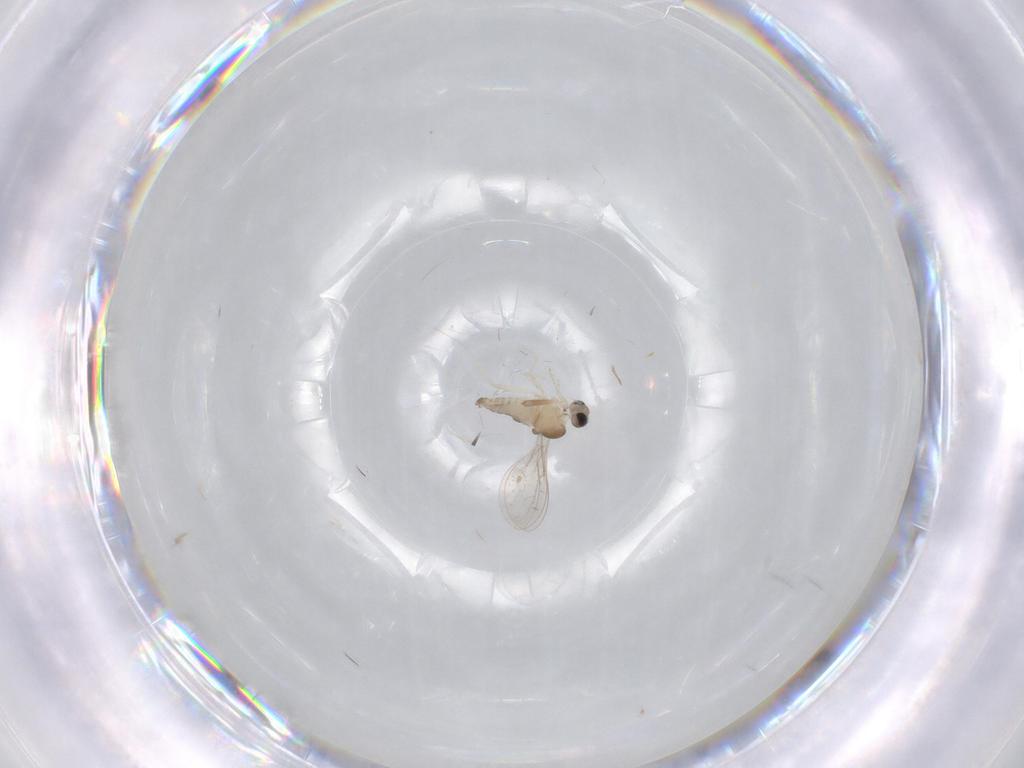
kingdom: Animalia
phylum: Arthropoda
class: Insecta
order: Diptera
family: Cecidomyiidae
